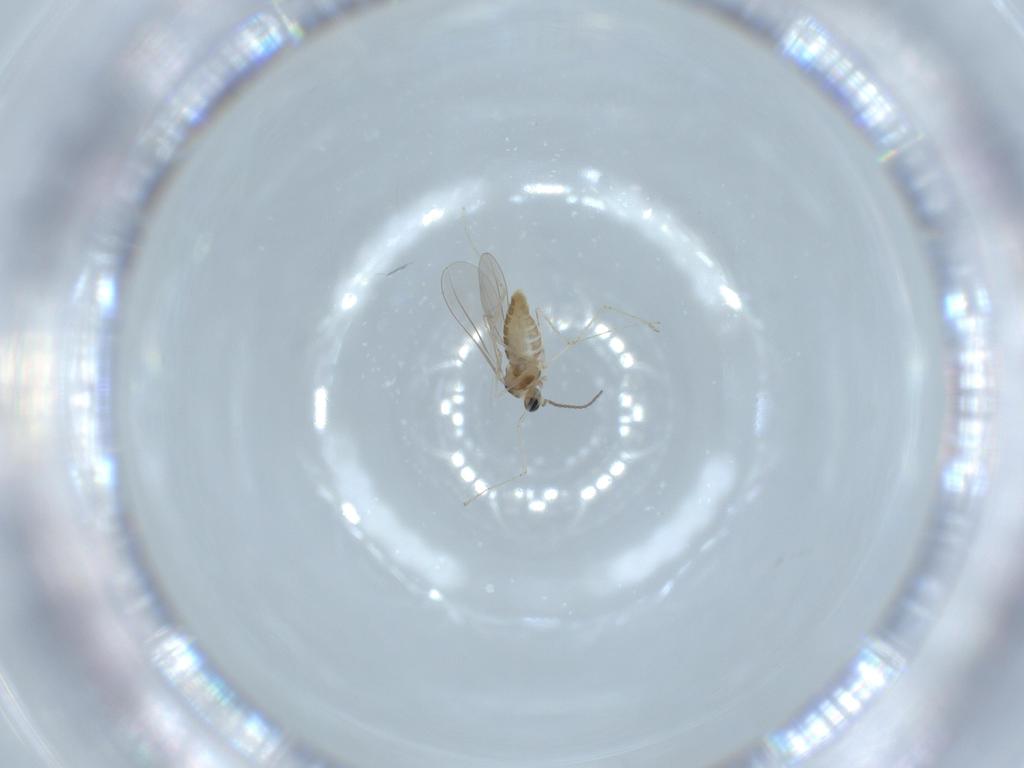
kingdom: Animalia
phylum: Arthropoda
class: Insecta
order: Diptera
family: Cecidomyiidae
